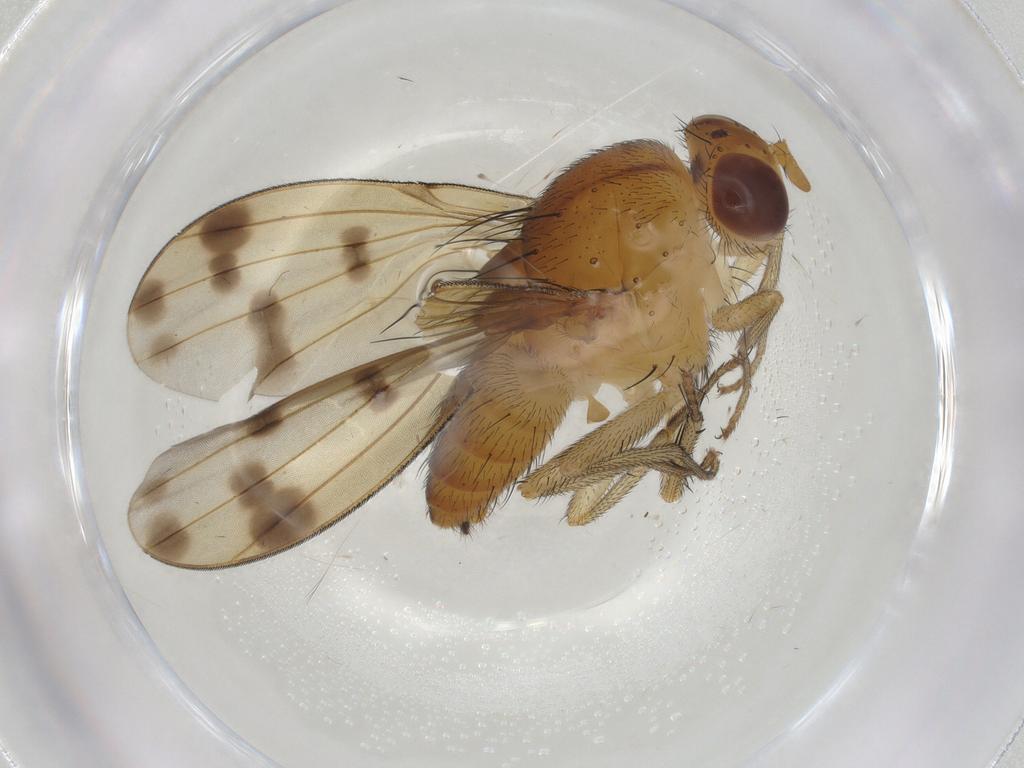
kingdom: Animalia
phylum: Arthropoda
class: Insecta
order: Diptera
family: Lauxaniidae
